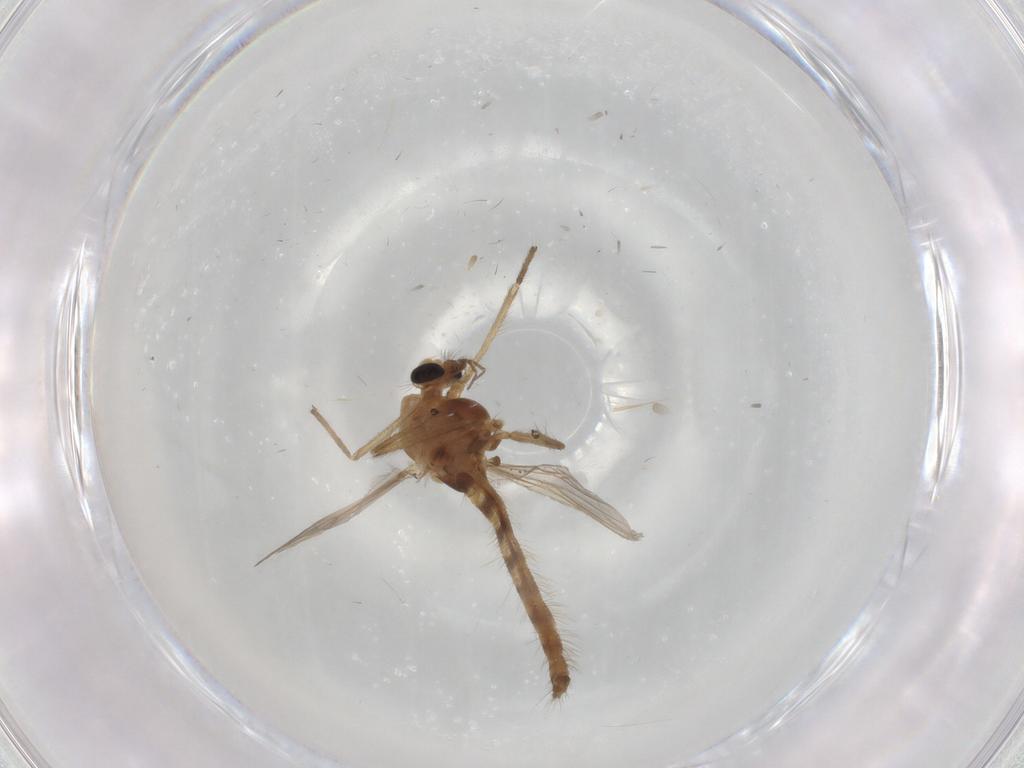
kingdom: Animalia
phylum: Arthropoda
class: Insecta
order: Diptera
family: Chironomidae
